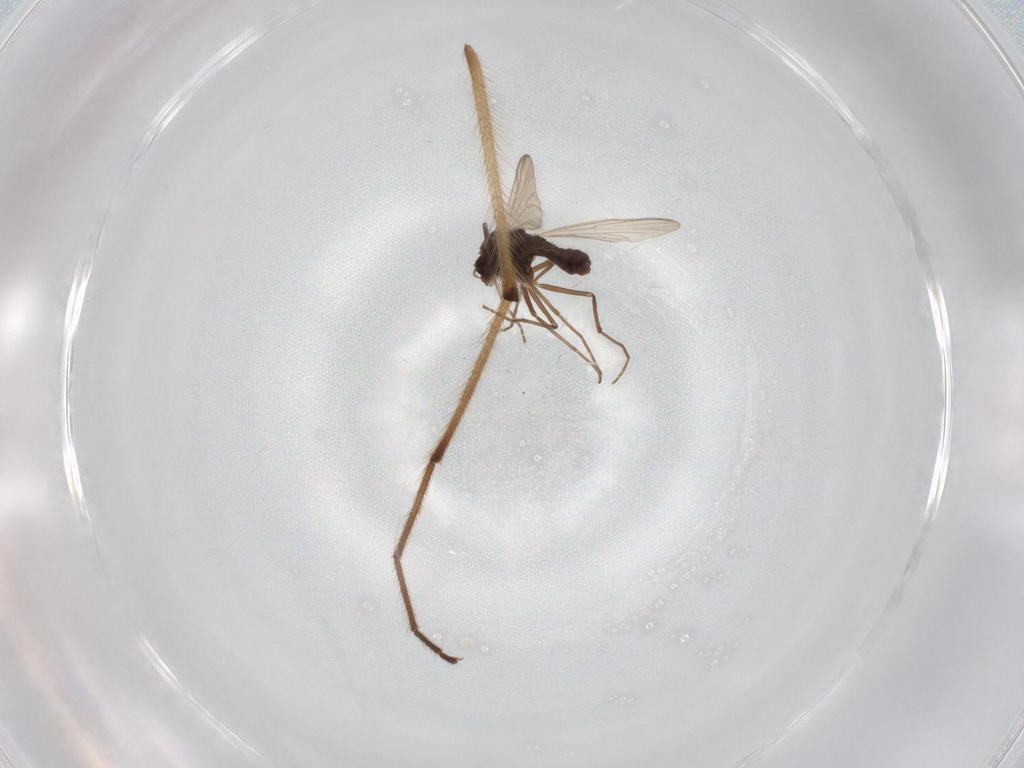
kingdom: Animalia
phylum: Arthropoda
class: Insecta
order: Diptera
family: Chironomidae
